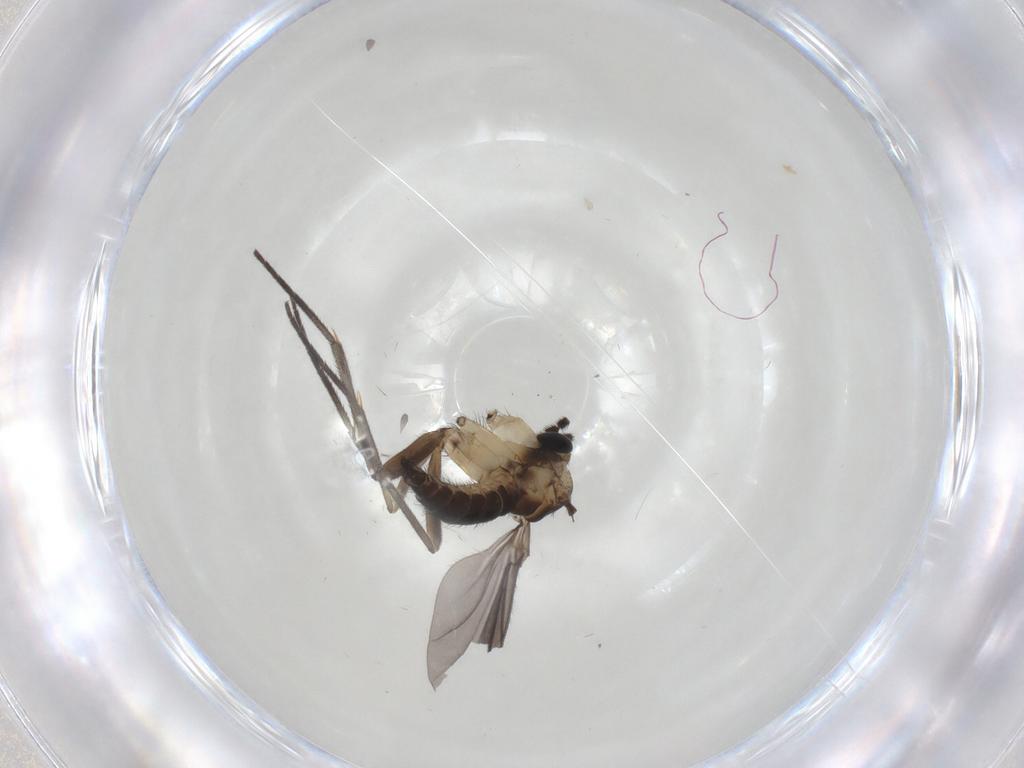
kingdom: Animalia
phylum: Arthropoda
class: Insecta
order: Diptera
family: Sciaridae
